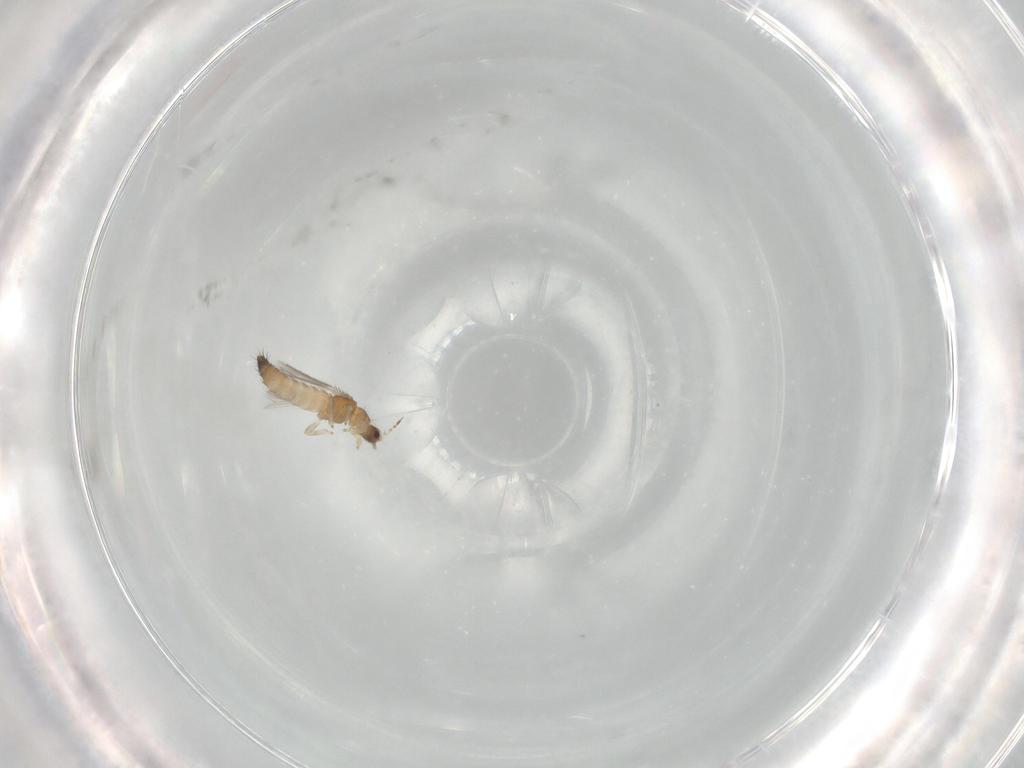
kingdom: Animalia
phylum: Arthropoda
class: Insecta
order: Thysanoptera
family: Thripidae
